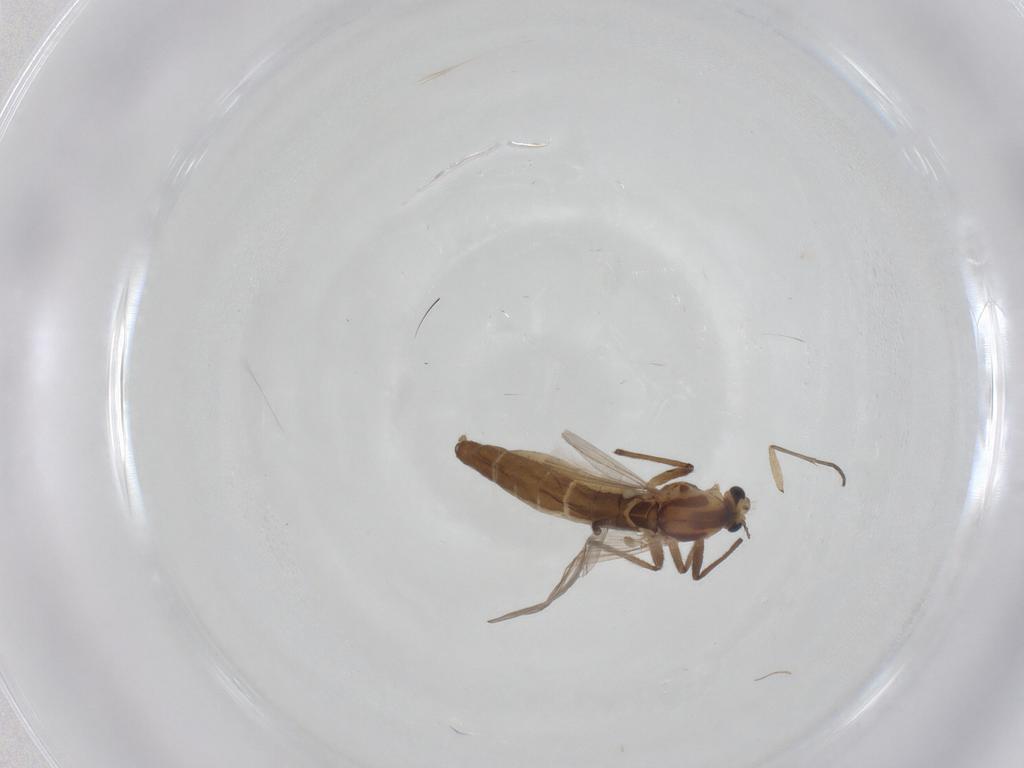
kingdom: Animalia
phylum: Arthropoda
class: Insecta
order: Diptera
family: Chironomidae
